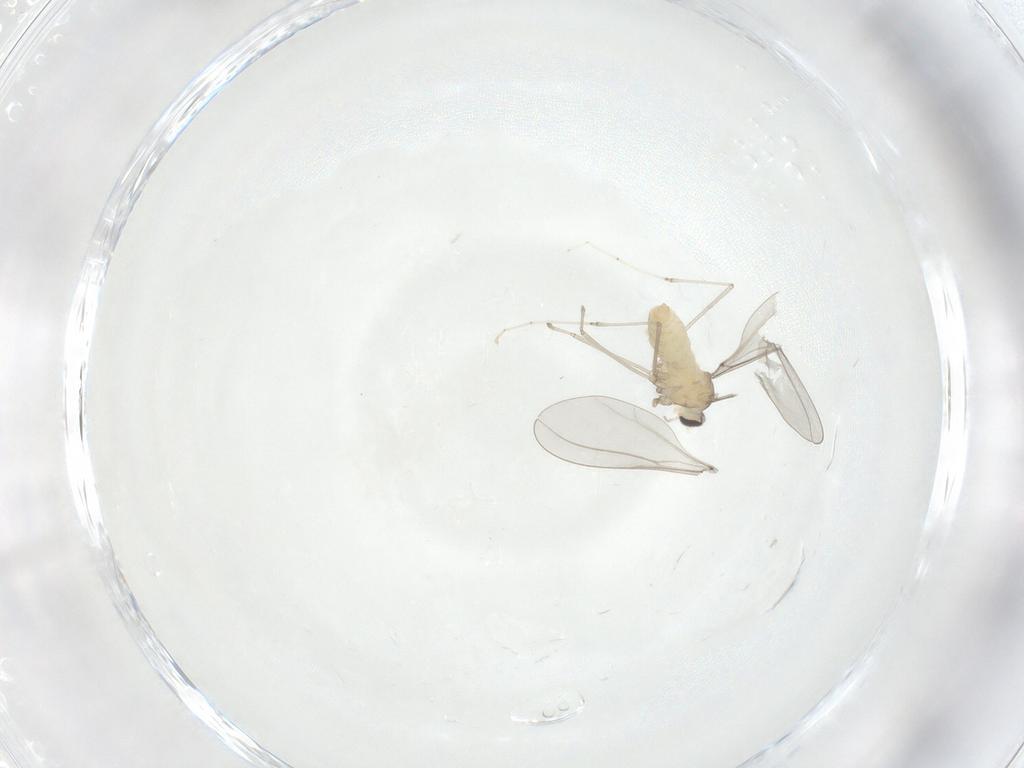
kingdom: Animalia
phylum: Arthropoda
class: Insecta
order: Diptera
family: Cecidomyiidae
